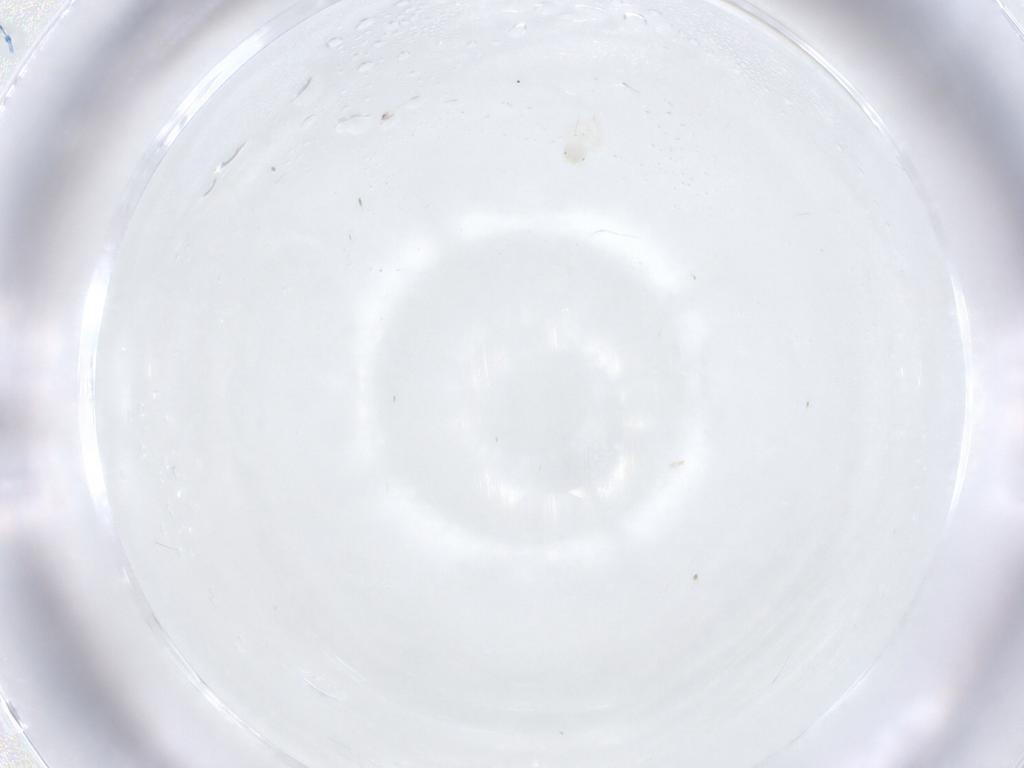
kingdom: Animalia
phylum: Arthropoda
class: Arachnida
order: Trombidiformes
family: Anystidae
